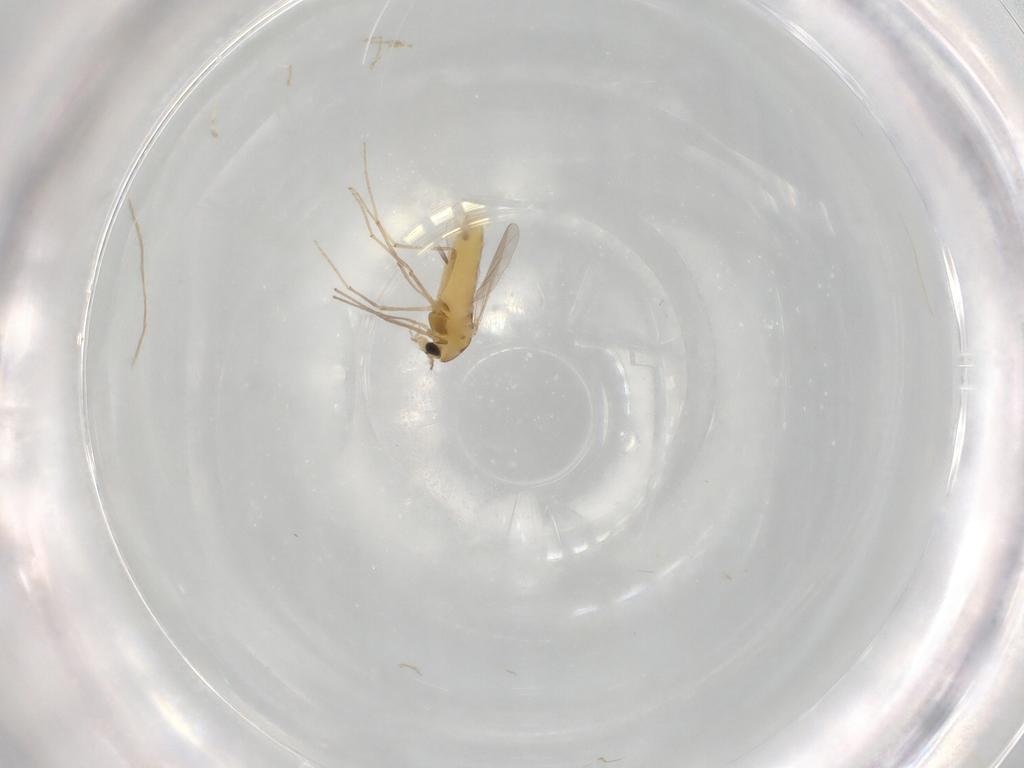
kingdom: Animalia
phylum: Arthropoda
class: Insecta
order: Diptera
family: Chironomidae
